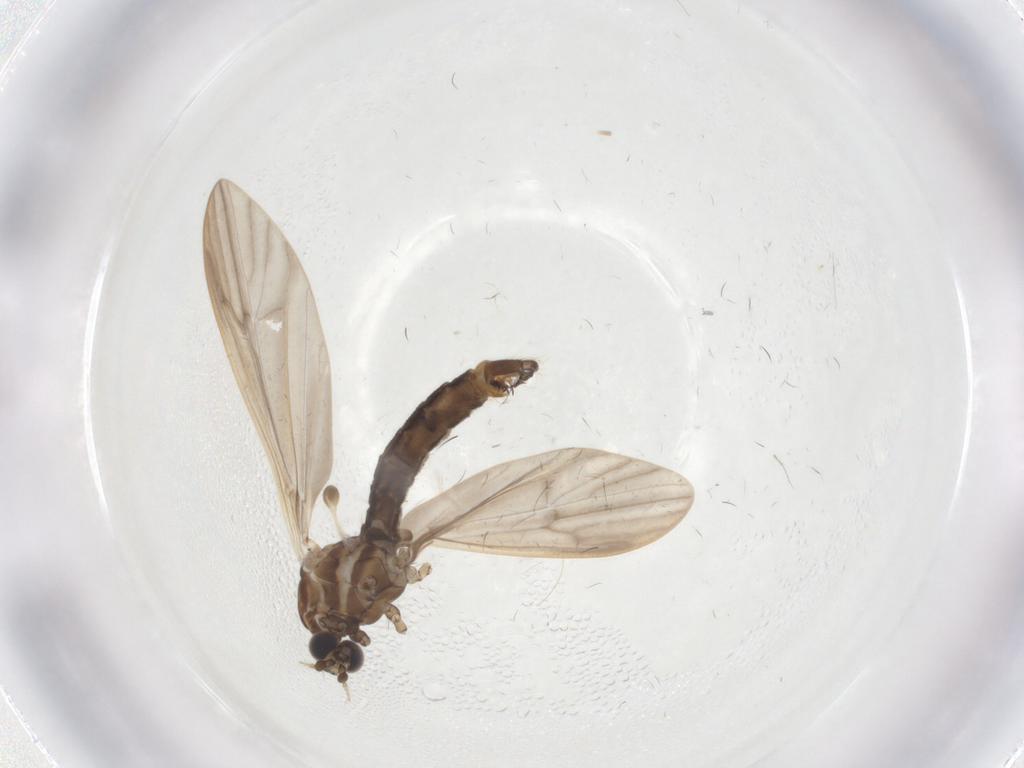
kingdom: Animalia
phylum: Arthropoda
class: Insecta
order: Diptera
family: Limoniidae
